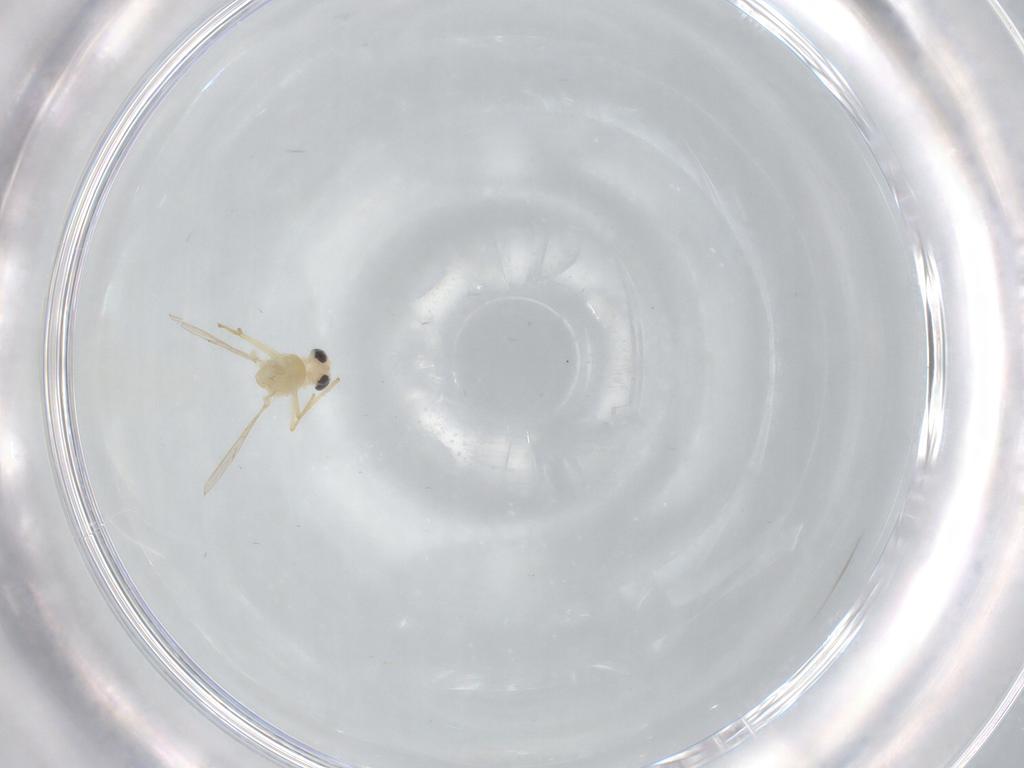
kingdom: Animalia
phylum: Arthropoda
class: Insecta
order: Diptera
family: Chironomidae
